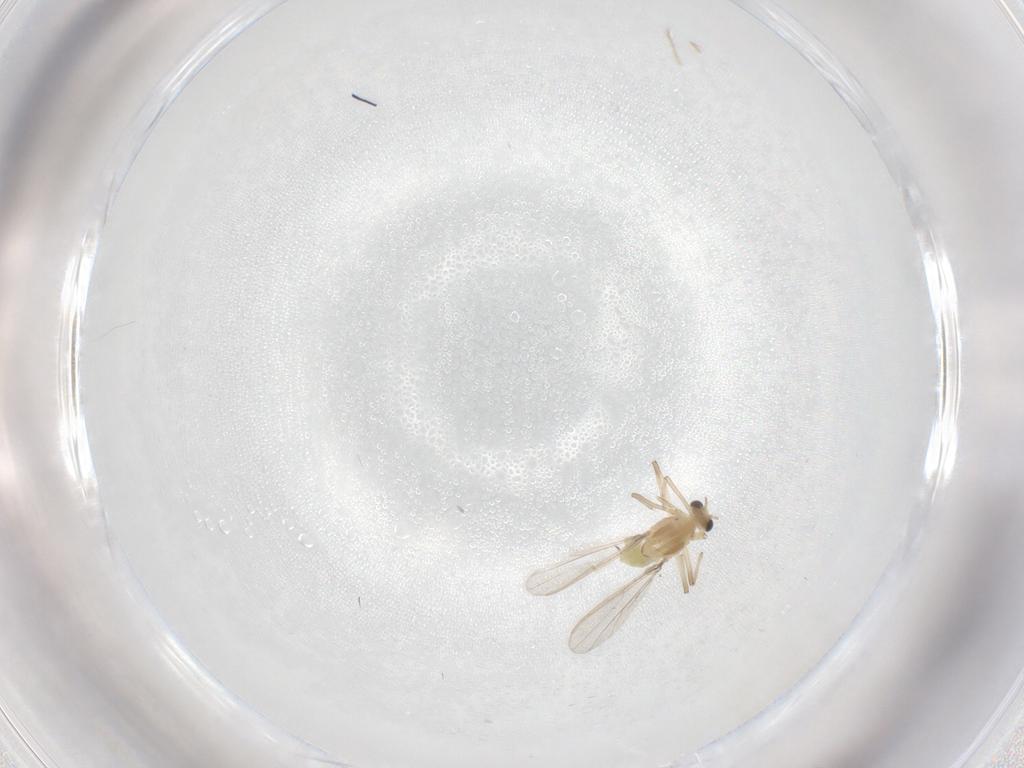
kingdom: Animalia
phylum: Arthropoda
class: Insecta
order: Diptera
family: Chironomidae
